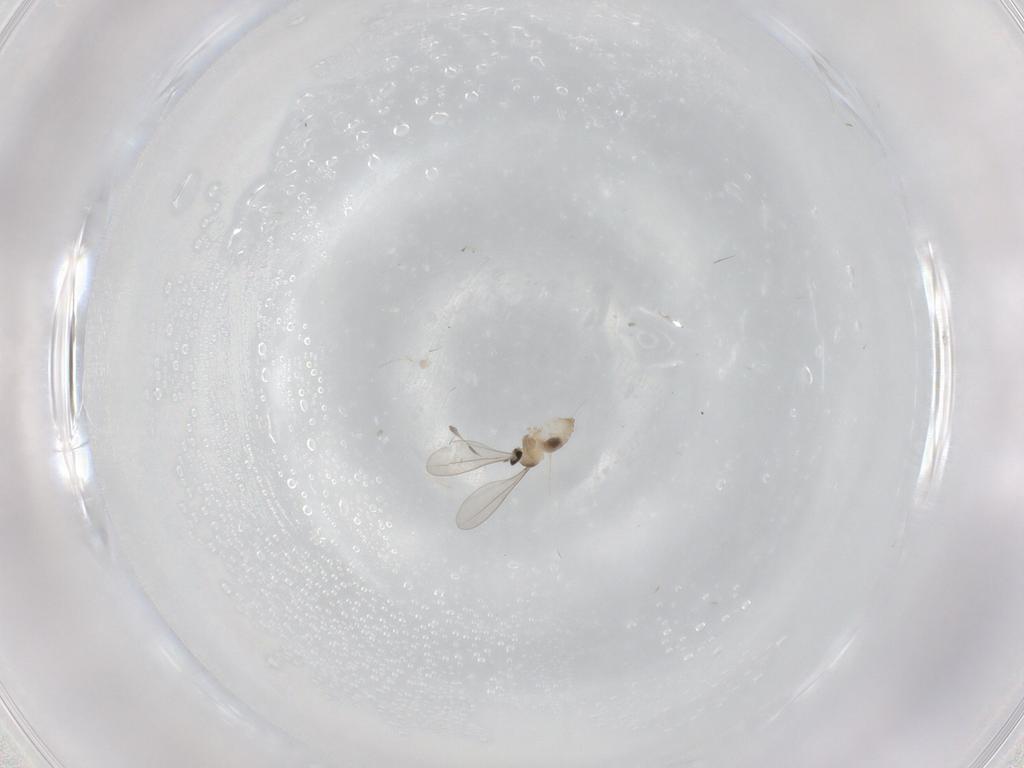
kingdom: Animalia
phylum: Arthropoda
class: Insecta
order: Diptera
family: Cecidomyiidae
